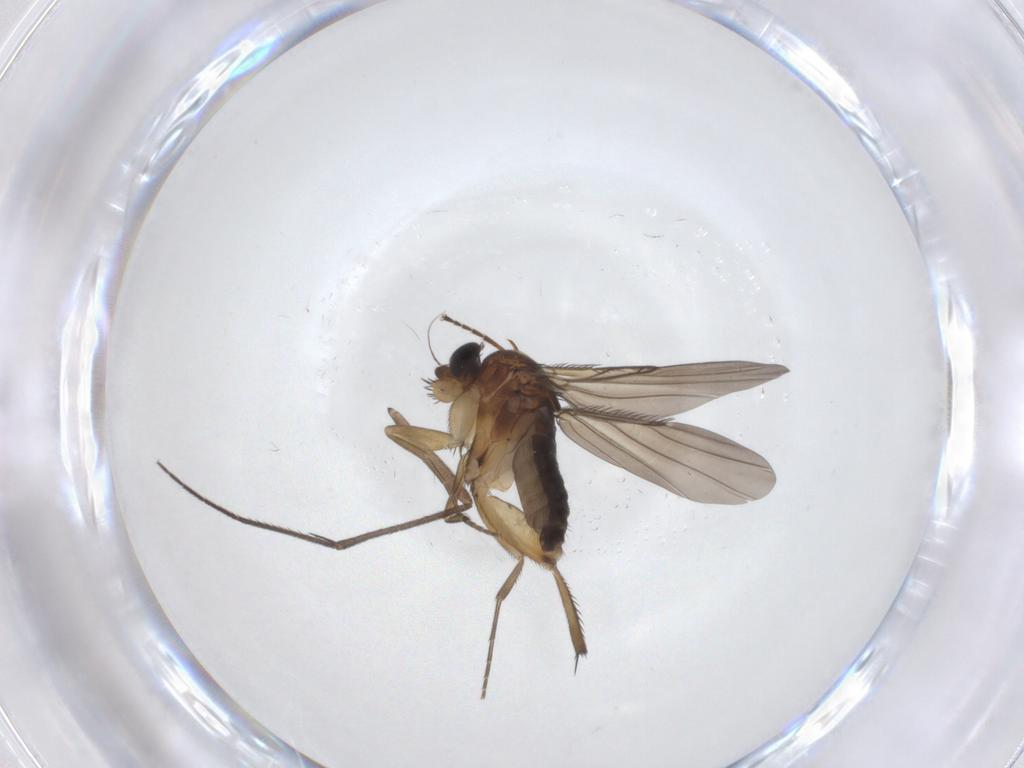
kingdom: Animalia
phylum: Arthropoda
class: Insecta
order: Diptera
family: Phoridae
